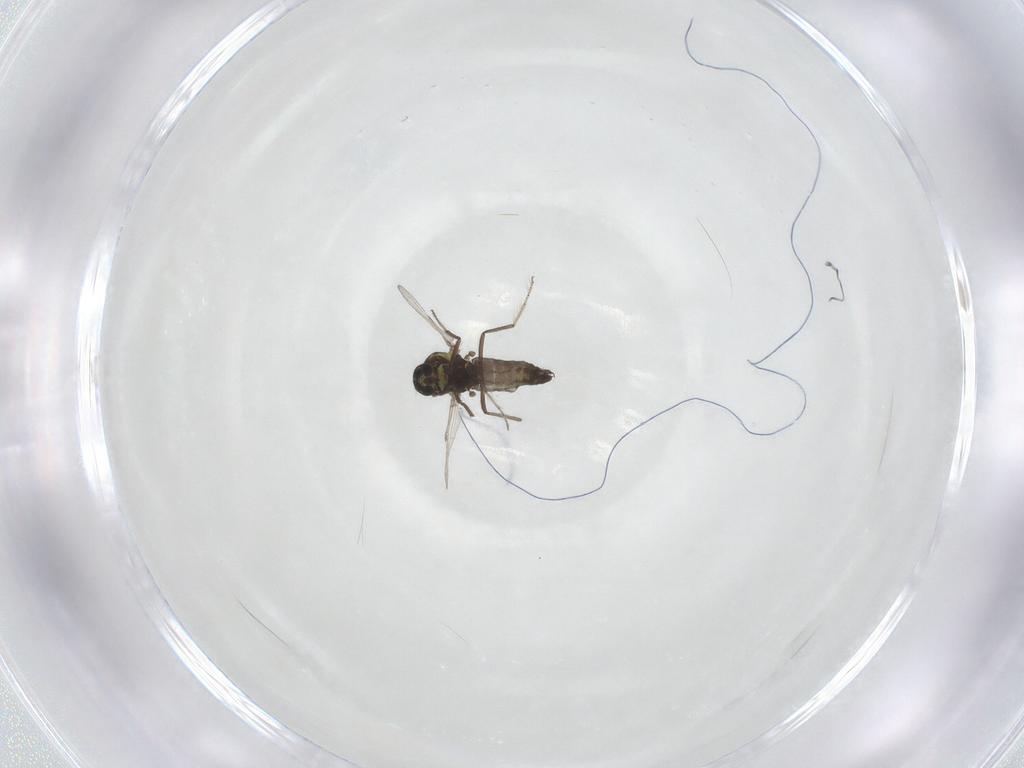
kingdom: Animalia
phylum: Arthropoda
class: Insecta
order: Diptera
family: Ceratopogonidae
